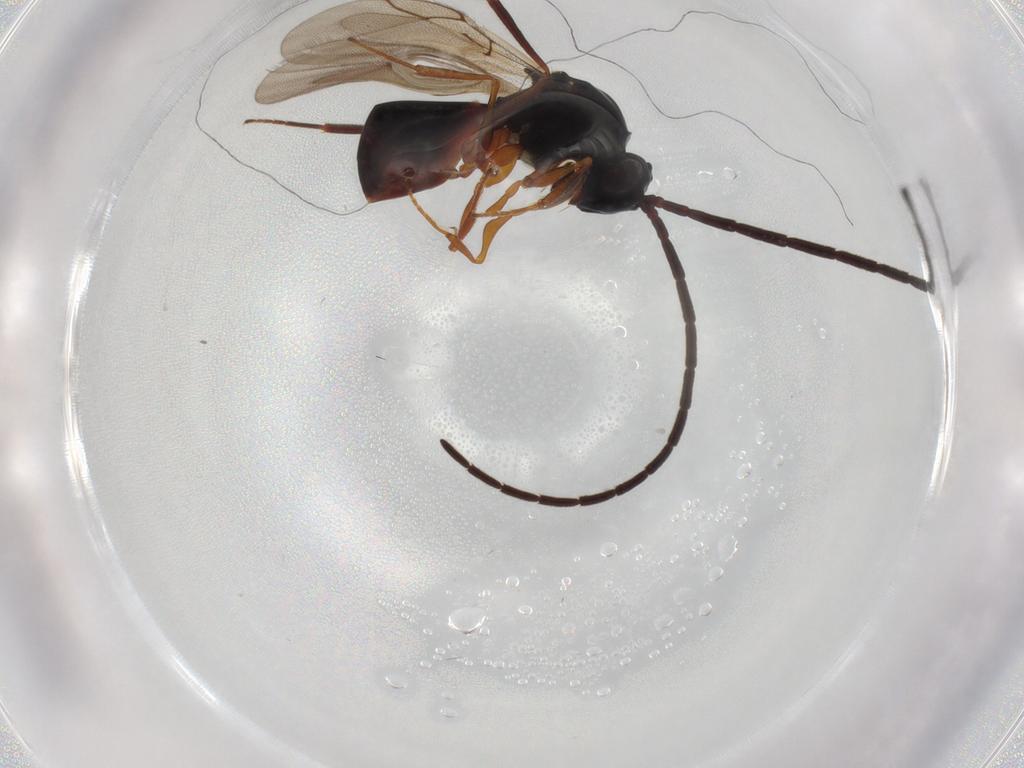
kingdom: Animalia
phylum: Arthropoda
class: Insecta
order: Hymenoptera
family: Figitidae
